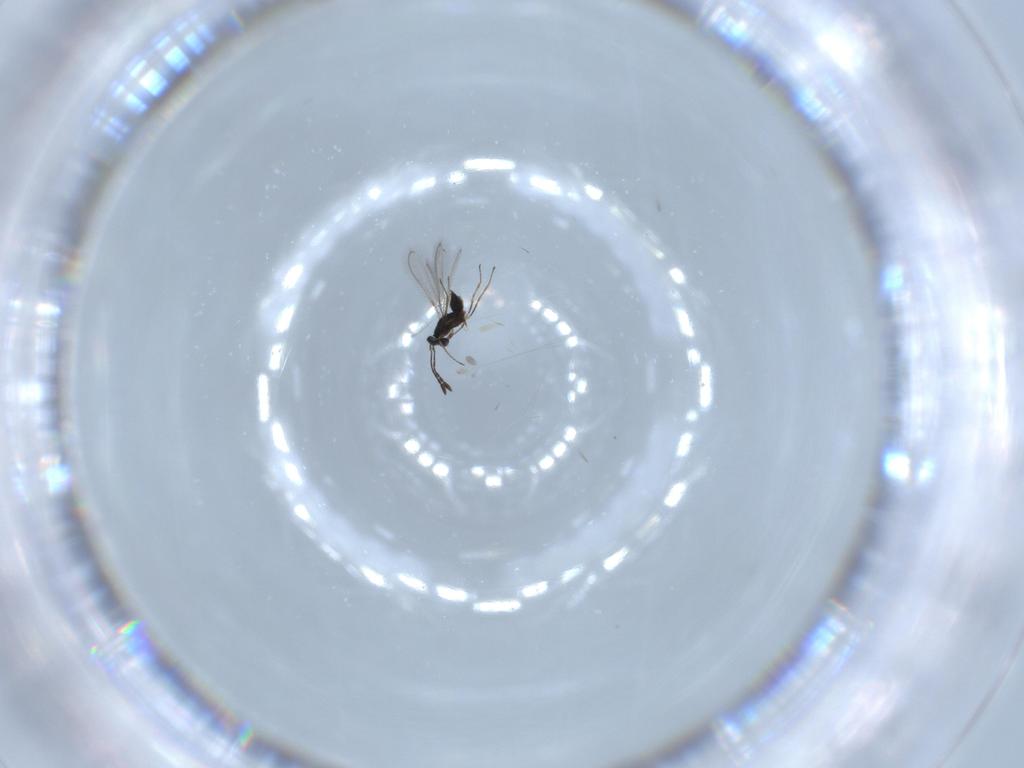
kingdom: Animalia
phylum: Arthropoda
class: Insecta
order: Hymenoptera
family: Mymaridae
